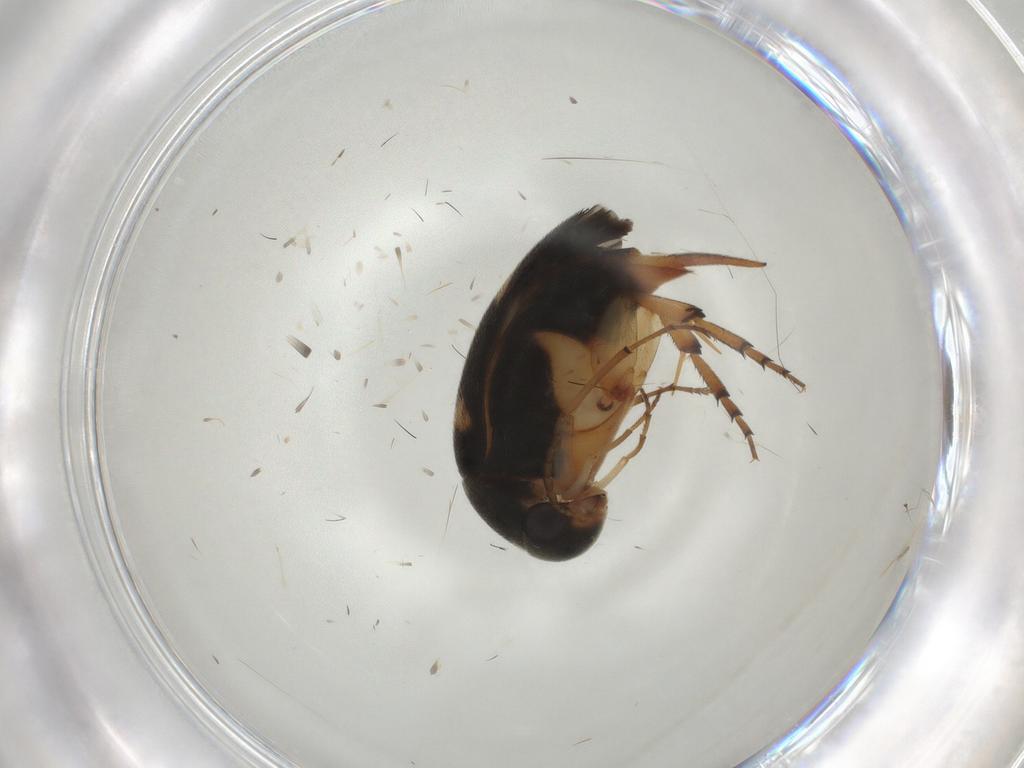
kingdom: Animalia
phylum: Arthropoda
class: Insecta
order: Coleoptera
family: Mordellidae
